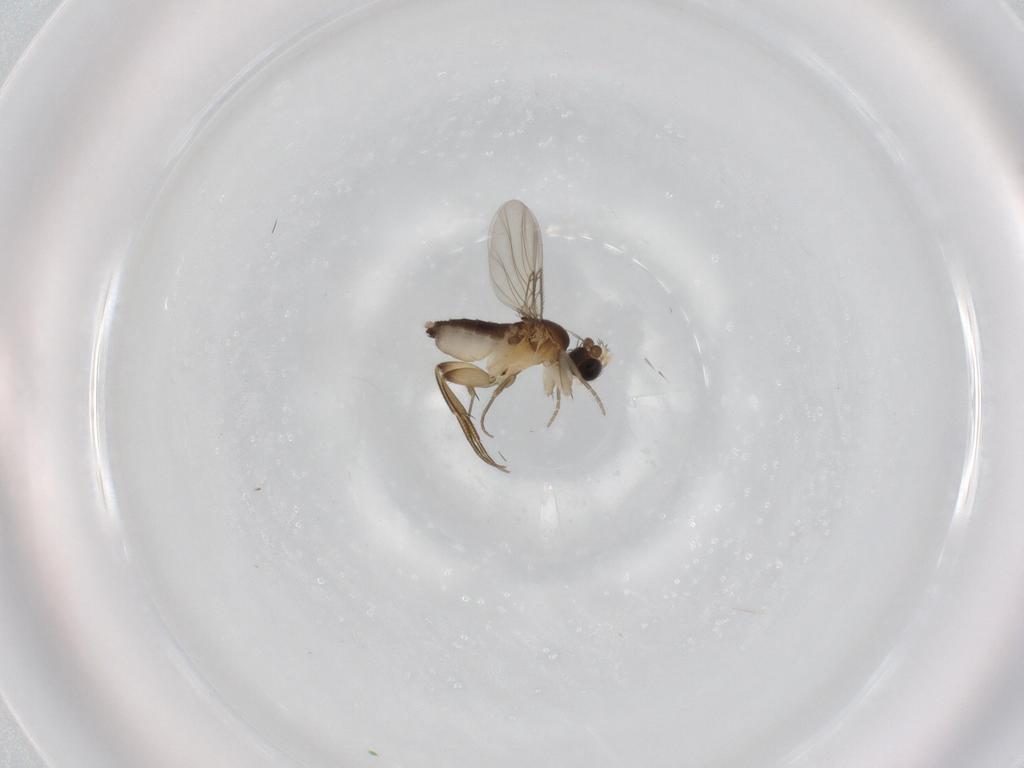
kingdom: Animalia
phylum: Arthropoda
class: Insecta
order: Diptera
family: Phoridae
